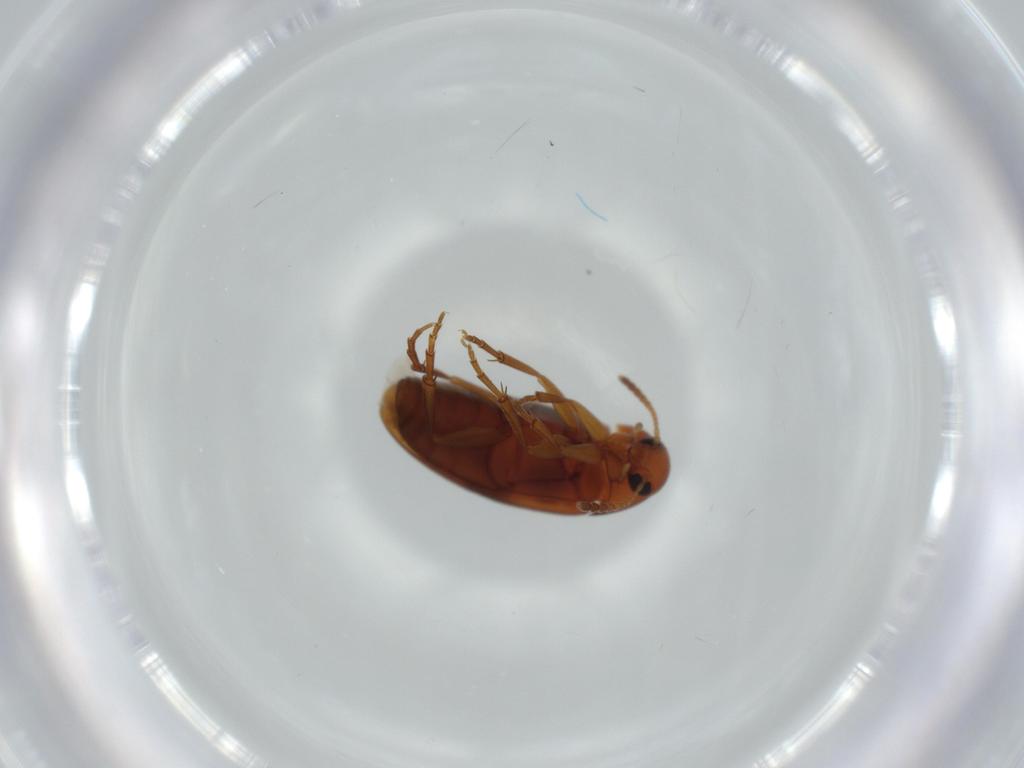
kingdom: Animalia
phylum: Arthropoda
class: Insecta
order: Coleoptera
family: Scraptiidae
